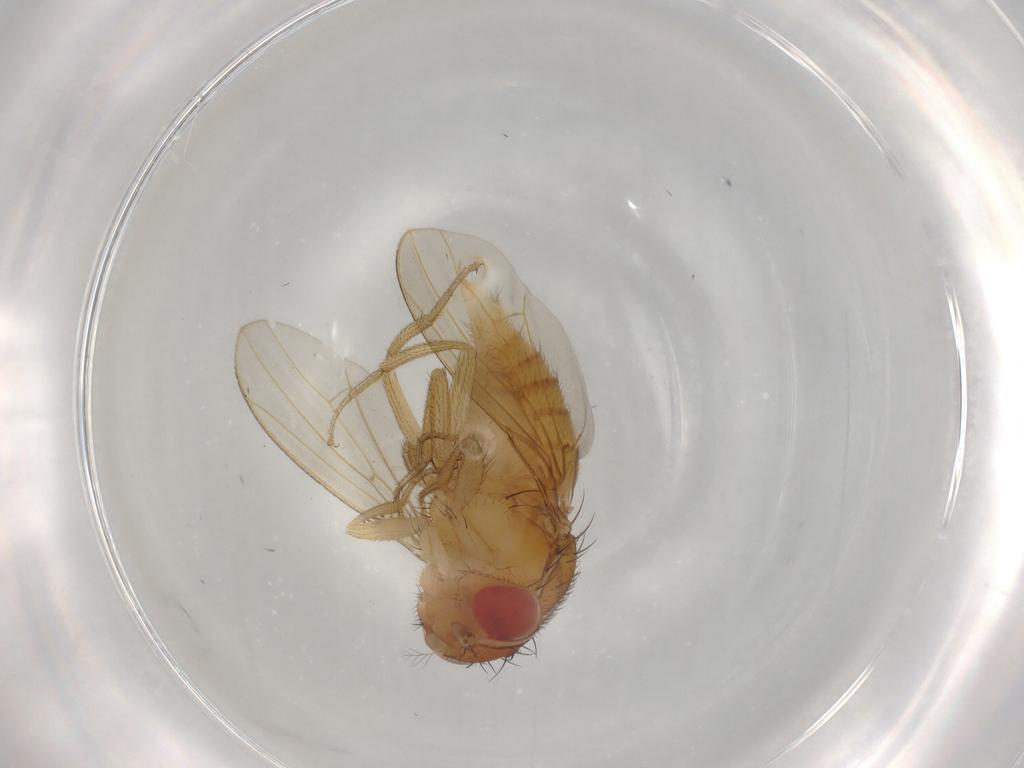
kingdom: Animalia
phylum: Arthropoda
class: Insecta
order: Diptera
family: Drosophilidae
